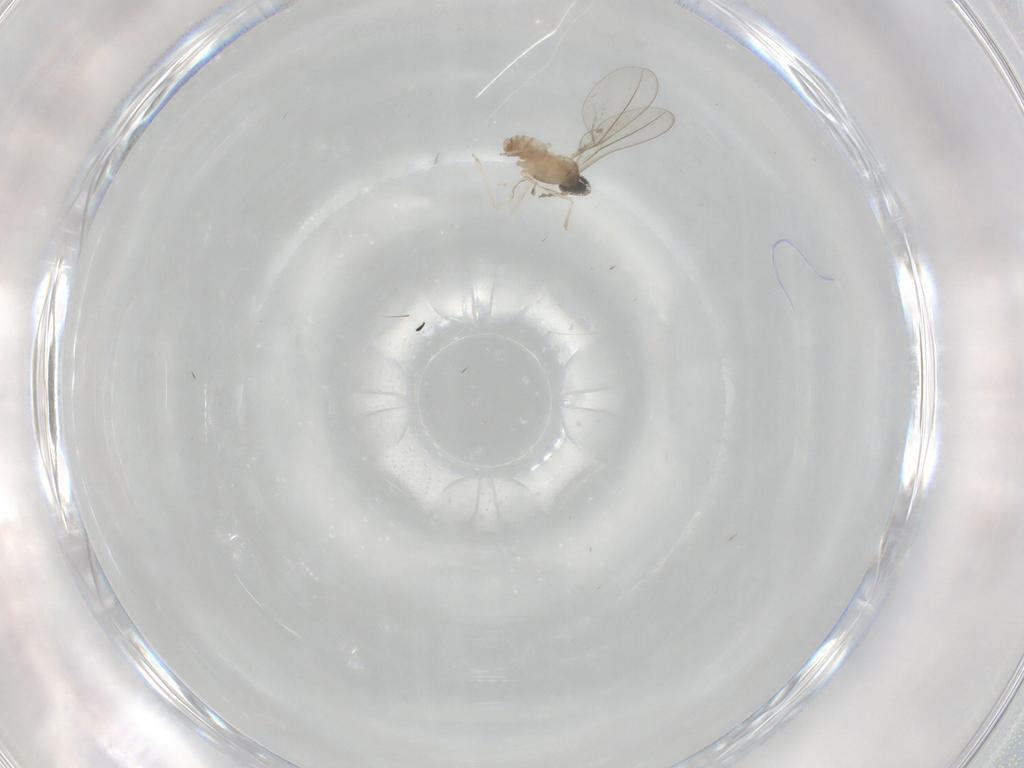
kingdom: Animalia
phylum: Arthropoda
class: Insecta
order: Diptera
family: Cecidomyiidae
